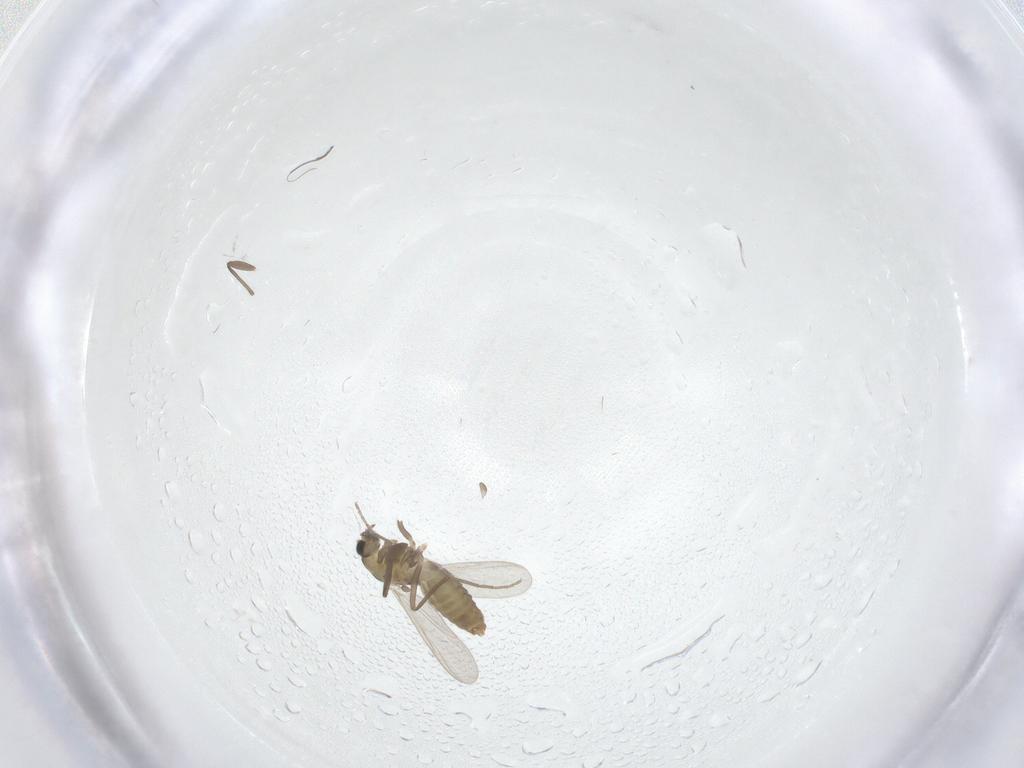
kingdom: Animalia
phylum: Arthropoda
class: Insecta
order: Diptera
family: Chironomidae
